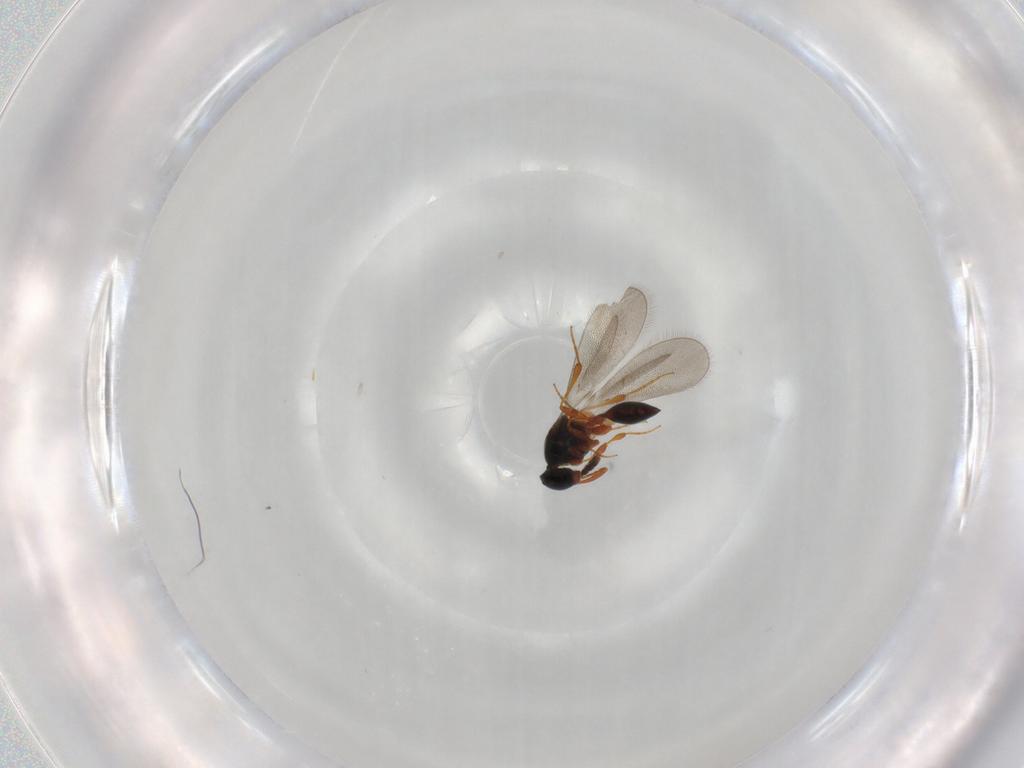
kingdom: Animalia
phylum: Arthropoda
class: Insecta
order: Hymenoptera
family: Platygastridae
